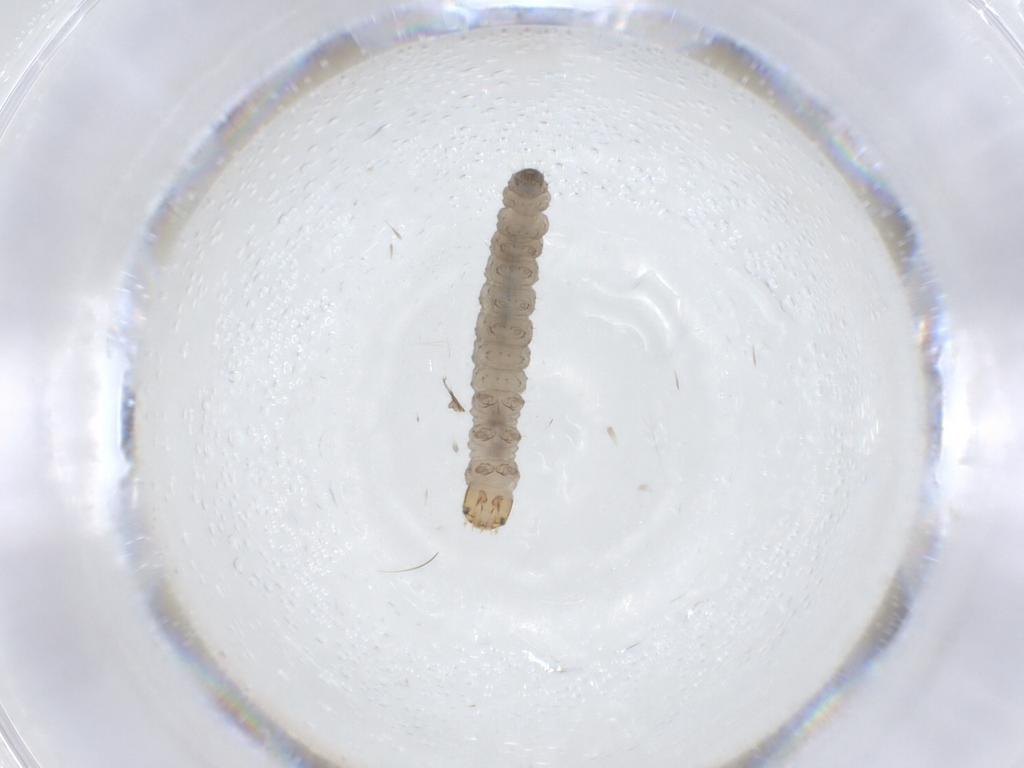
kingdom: Animalia
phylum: Arthropoda
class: Insecta
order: Lepidoptera
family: Tortricidae
